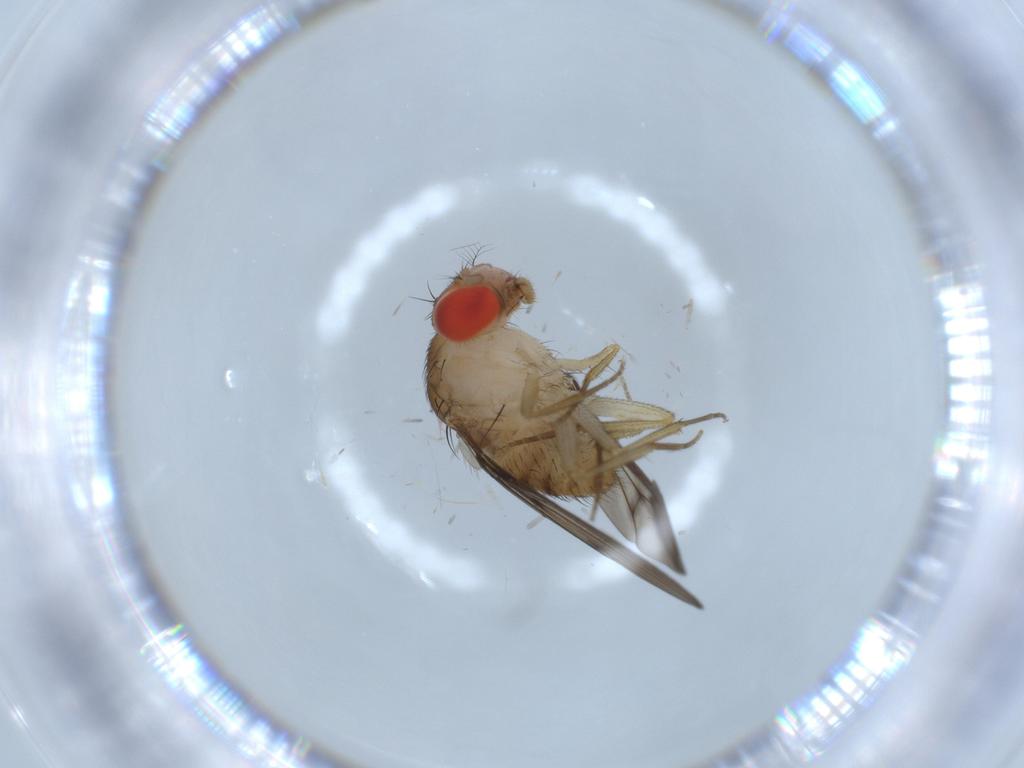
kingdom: Animalia
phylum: Arthropoda
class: Insecta
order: Diptera
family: Drosophilidae
